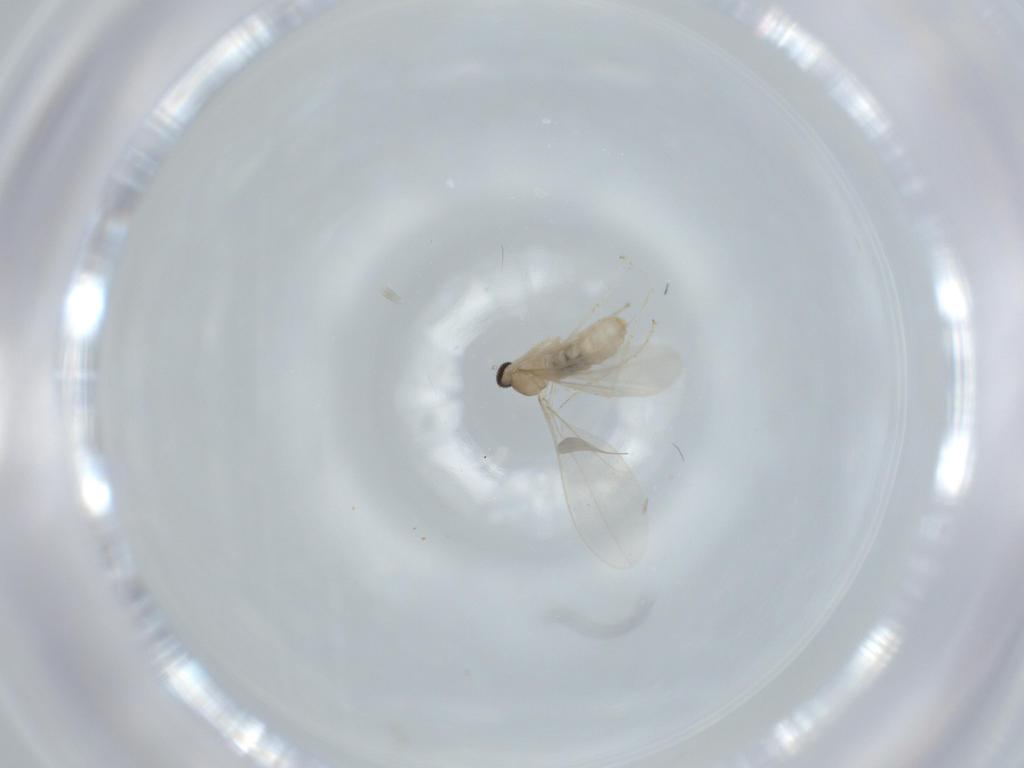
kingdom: Animalia
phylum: Arthropoda
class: Insecta
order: Diptera
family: Cecidomyiidae
